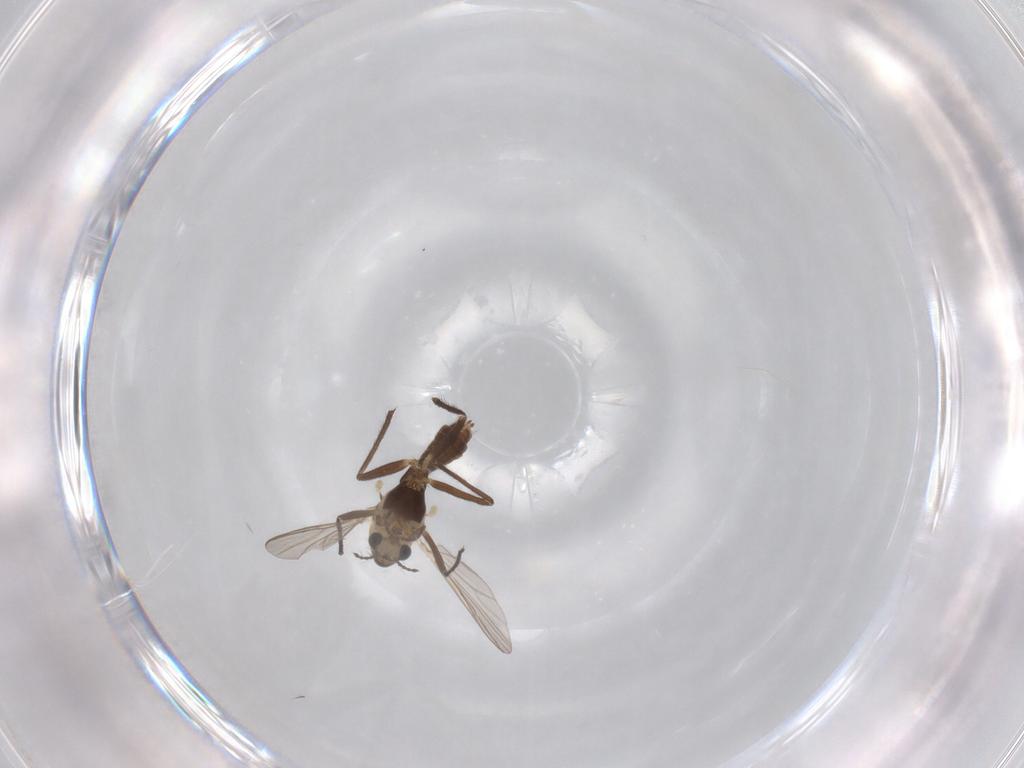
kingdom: Animalia
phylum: Arthropoda
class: Insecta
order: Diptera
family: Chironomidae
